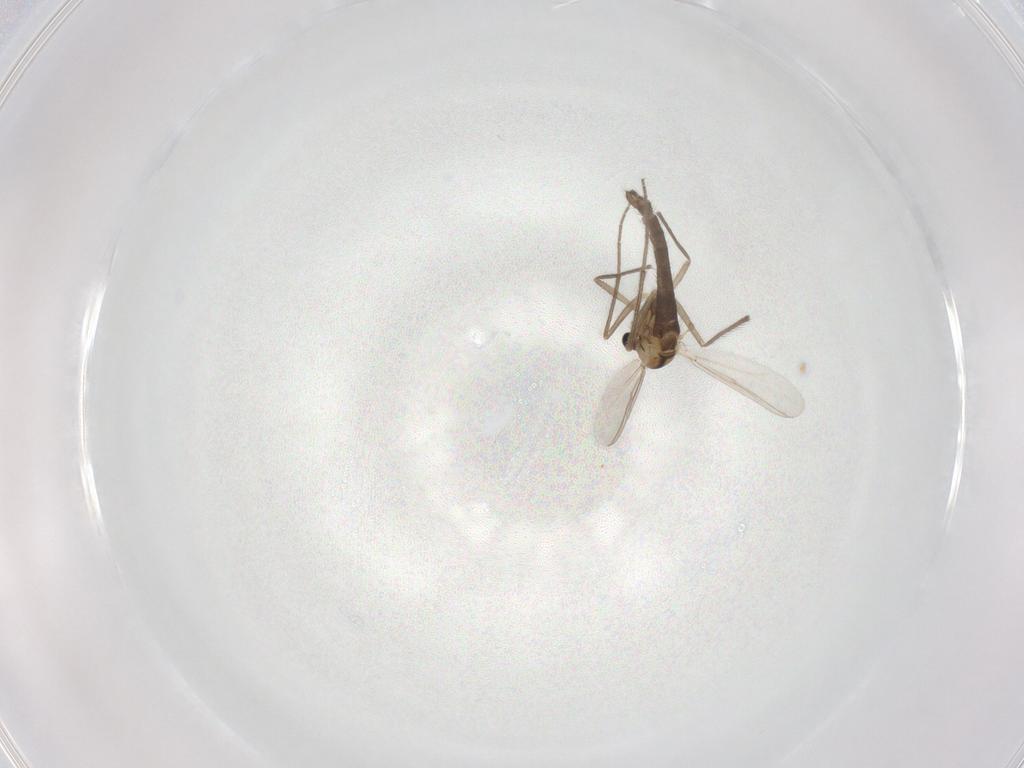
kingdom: Animalia
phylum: Arthropoda
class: Insecta
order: Diptera
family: Chironomidae
